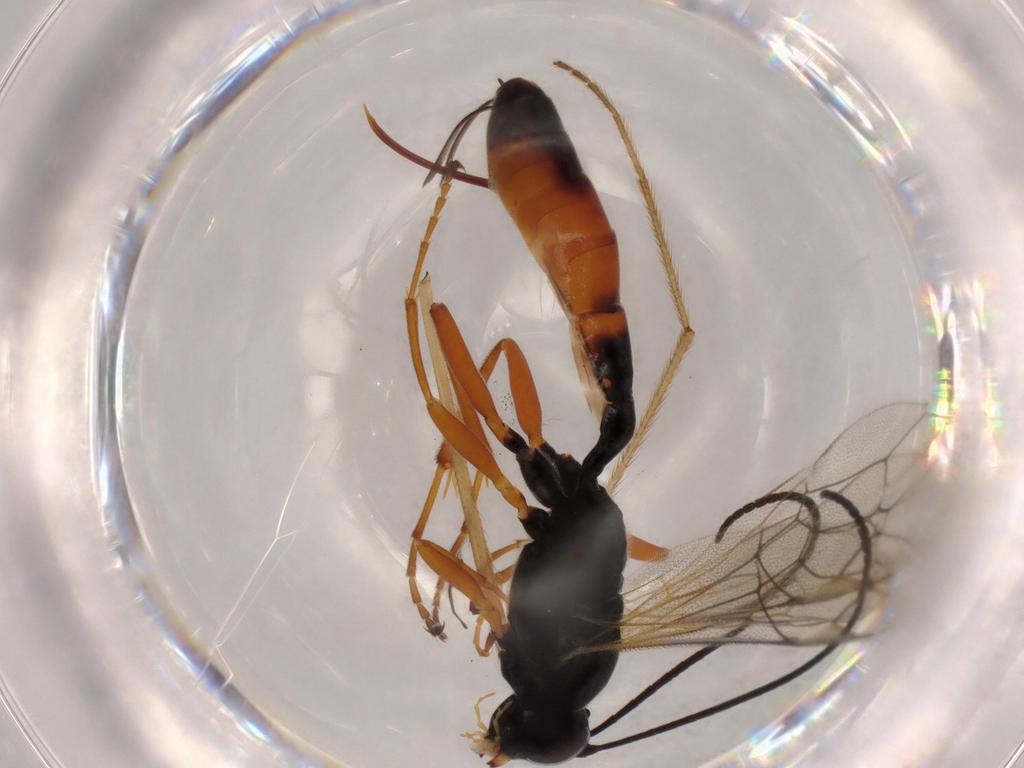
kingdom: Animalia
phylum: Arthropoda
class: Insecta
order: Hymenoptera
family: Ichneumonidae
